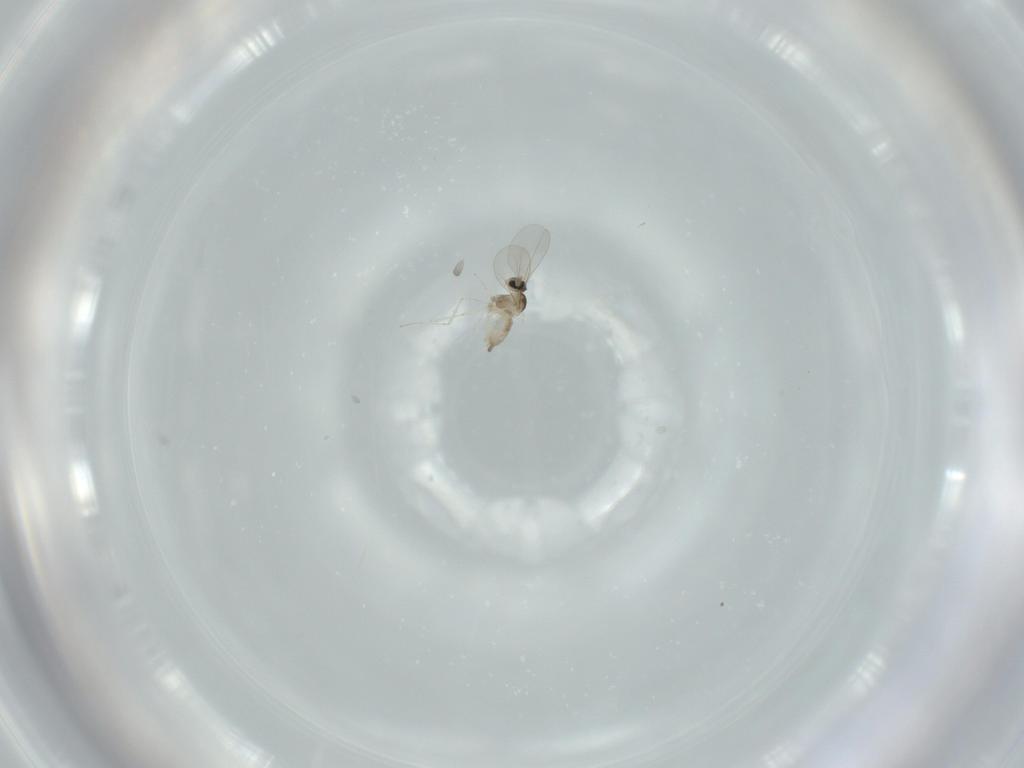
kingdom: Animalia
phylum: Arthropoda
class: Insecta
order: Diptera
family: Cecidomyiidae
